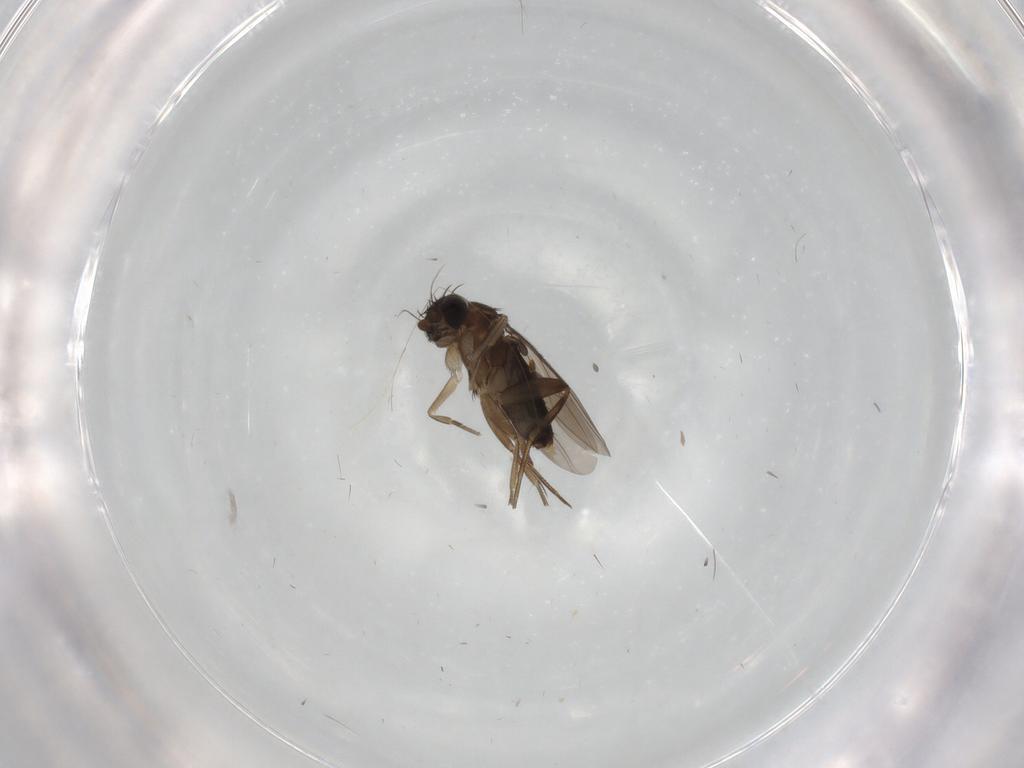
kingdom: Animalia
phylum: Arthropoda
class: Insecta
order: Diptera
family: Phoridae
